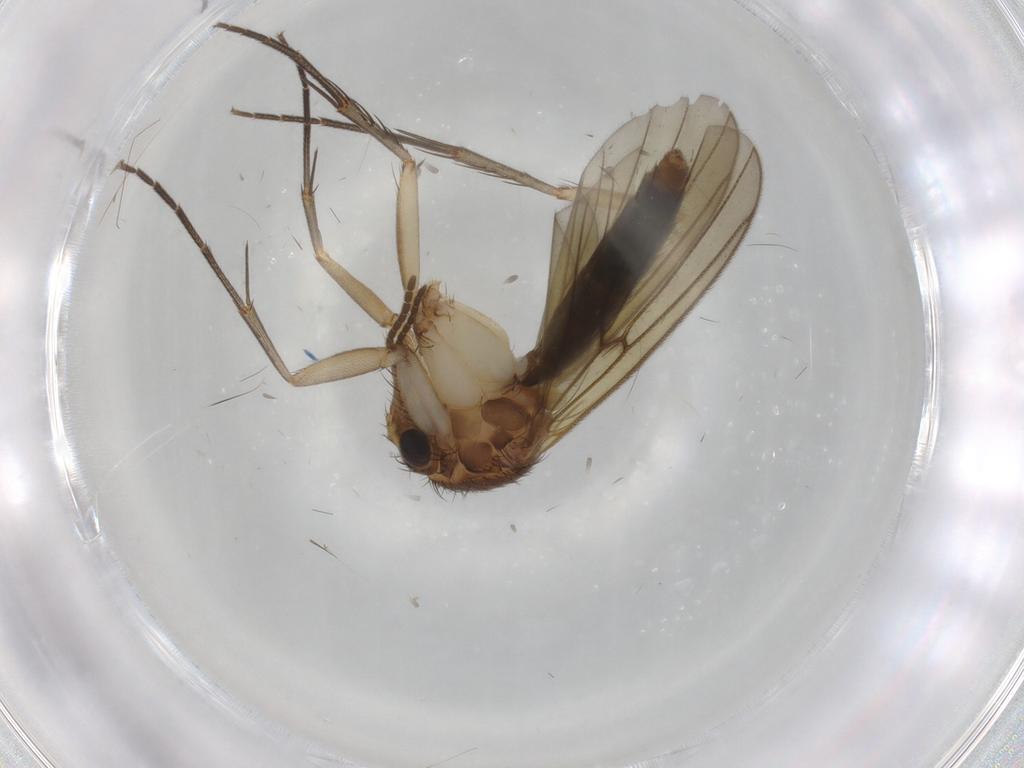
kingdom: Animalia
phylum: Arthropoda
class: Insecta
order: Diptera
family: Mycetophilidae
